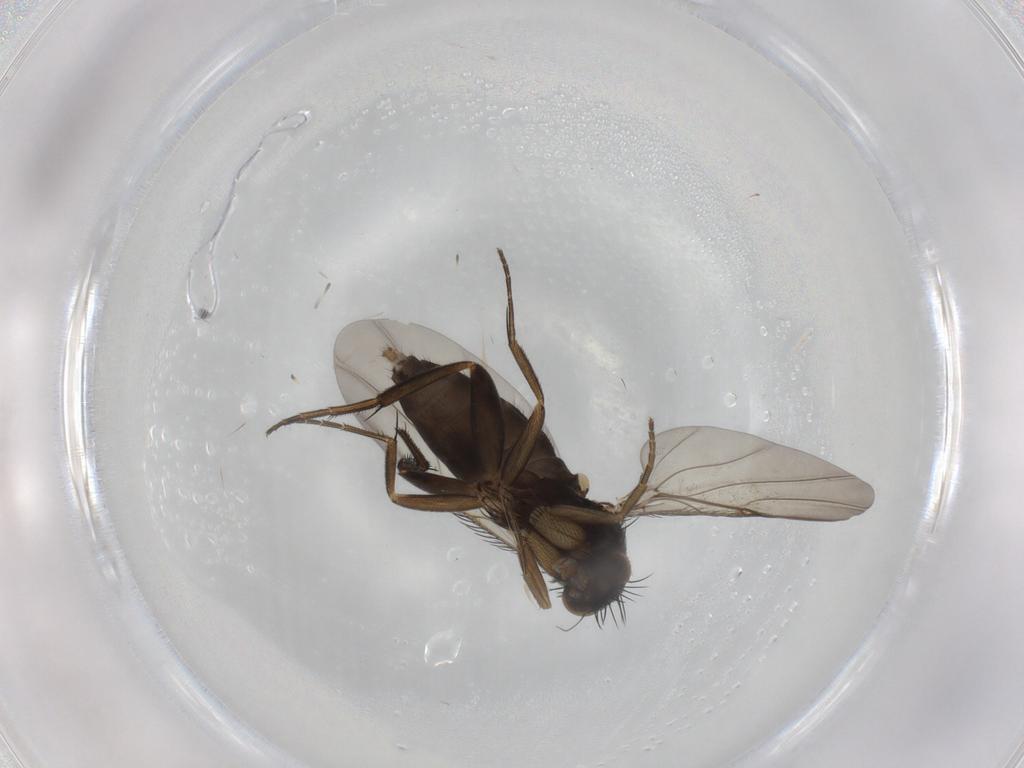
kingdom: Animalia
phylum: Arthropoda
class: Insecta
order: Diptera
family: Phoridae
